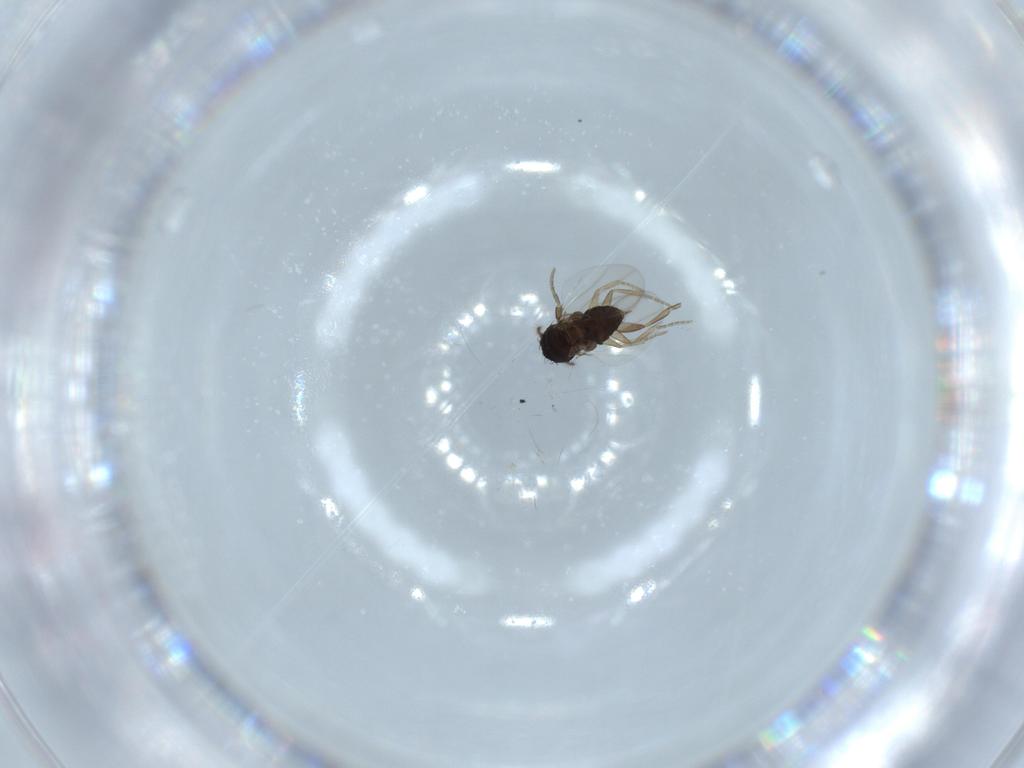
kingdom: Animalia
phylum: Arthropoda
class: Insecta
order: Diptera
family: Phoridae
